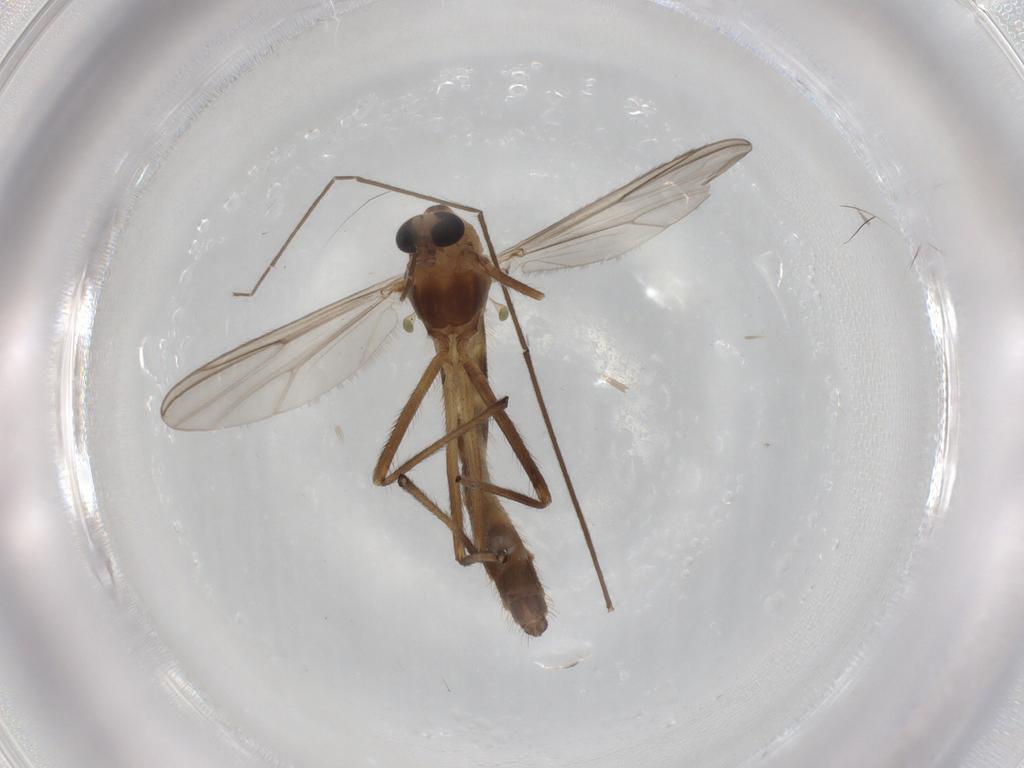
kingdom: Animalia
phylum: Arthropoda
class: Insecta
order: Diptera
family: Chironomidae
